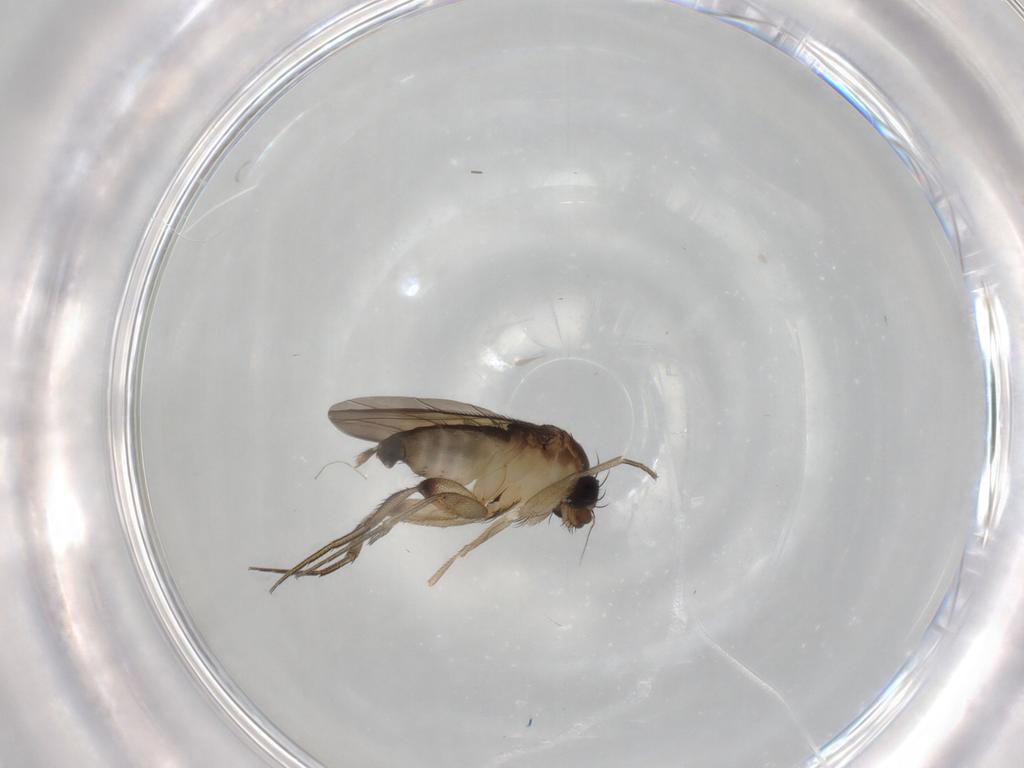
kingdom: Animalia
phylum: Arthropoda
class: Insecta
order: Diptera
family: Phoridae
